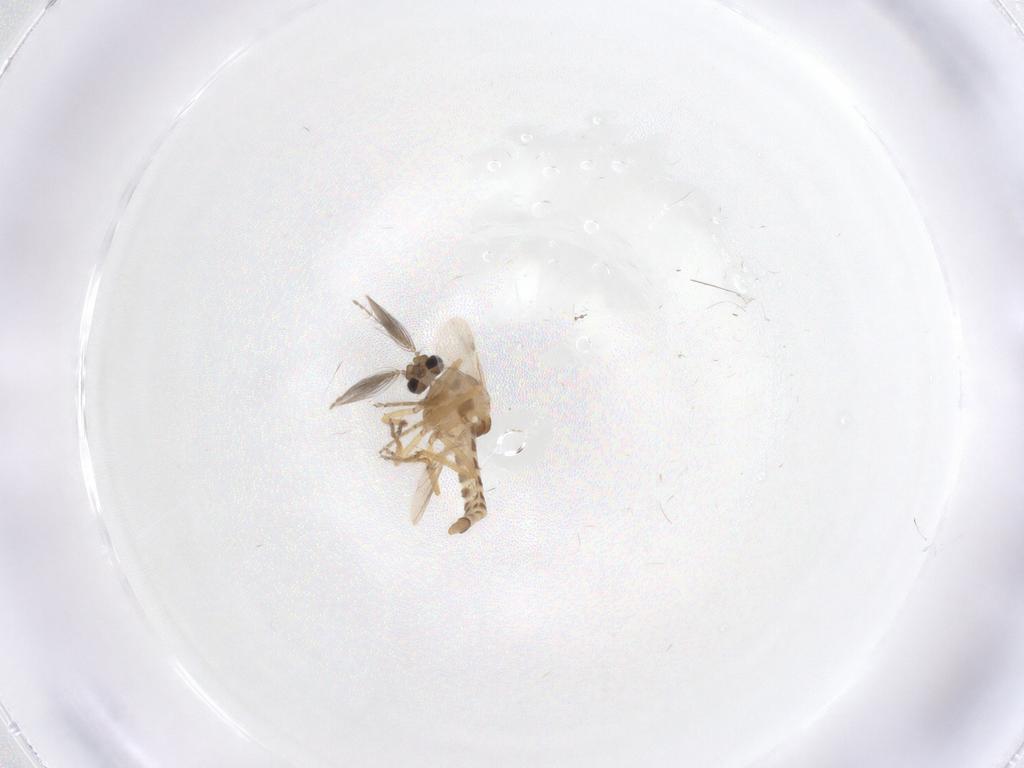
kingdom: Animalia
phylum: Arthropoda
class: Insecta
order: Diptera
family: Ceratopogonidae
